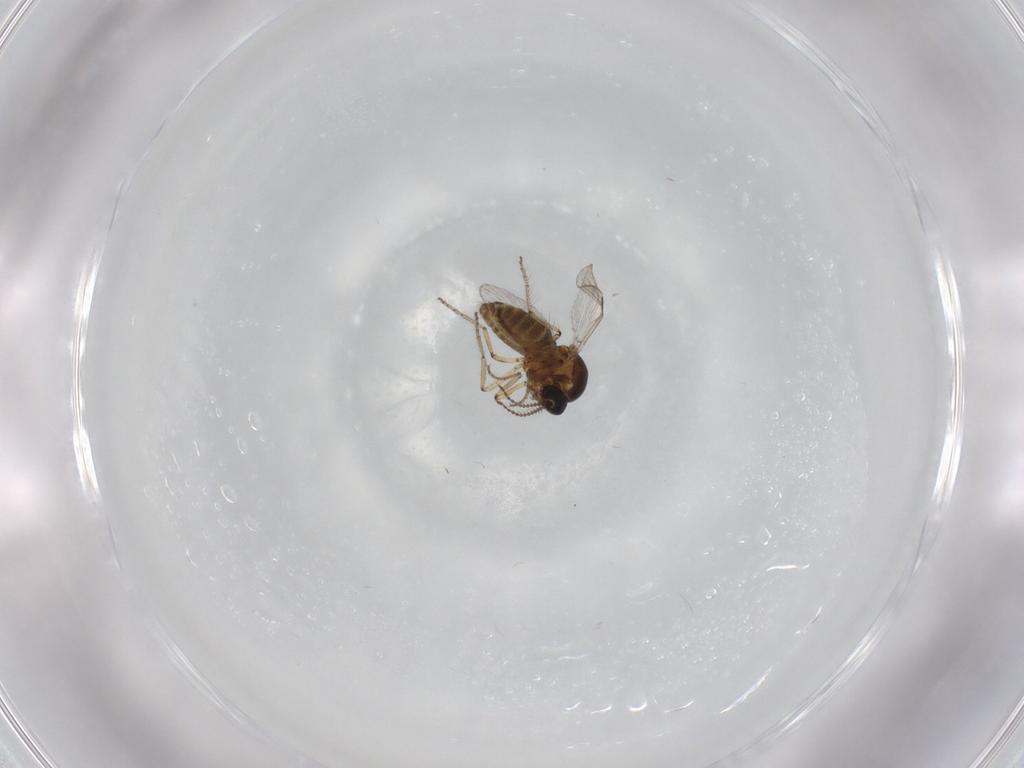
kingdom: Animalia
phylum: Arthropoda
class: Insecta
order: Diptera
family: Ceratopogonidae
